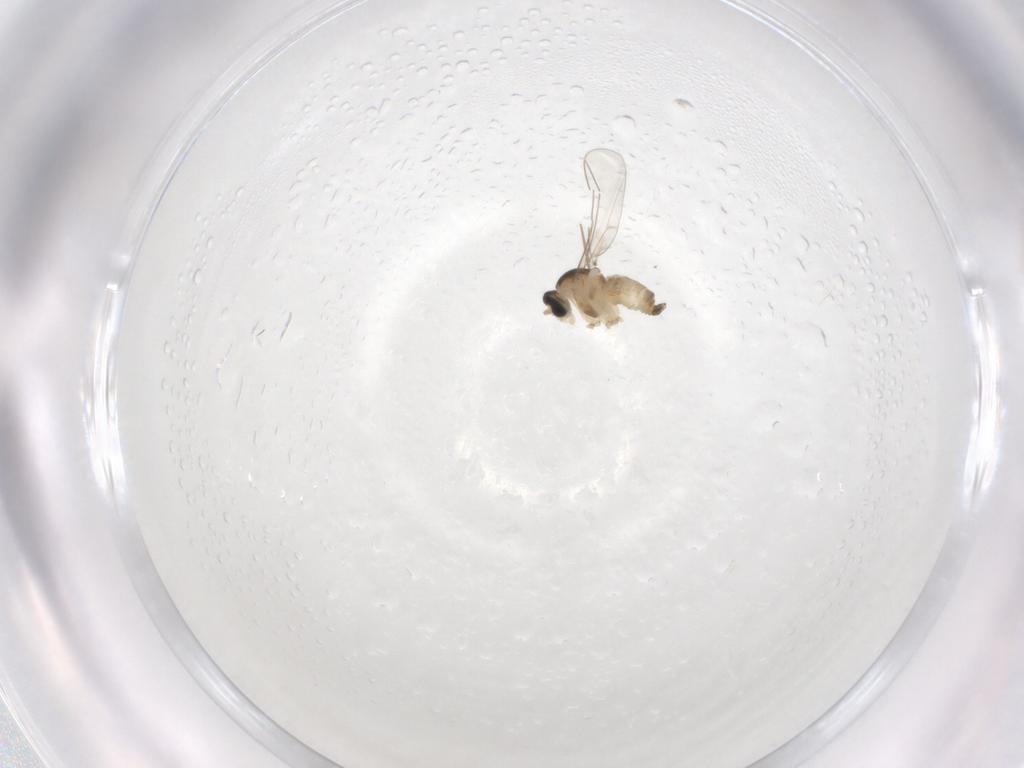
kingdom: Animalia
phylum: Arthropoda
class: Insecta
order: Diptera
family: Cecidomyiidae
